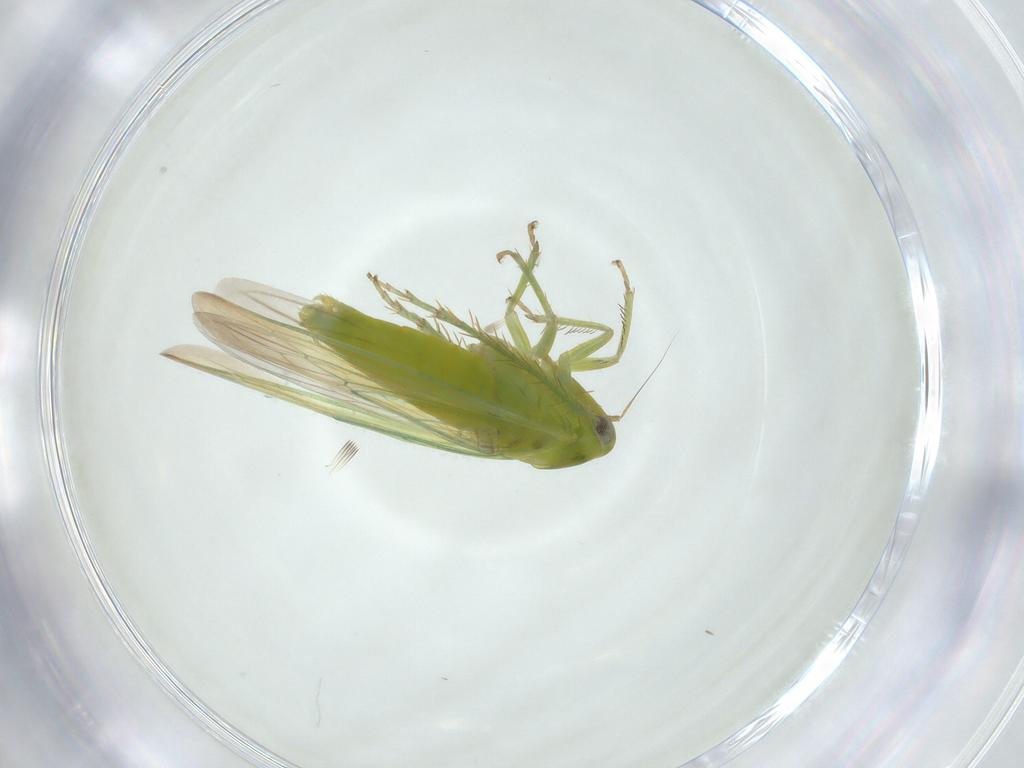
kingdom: Animalia
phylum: Arthropoda
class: Insecta
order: Hemiptera
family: Cicadellidae
